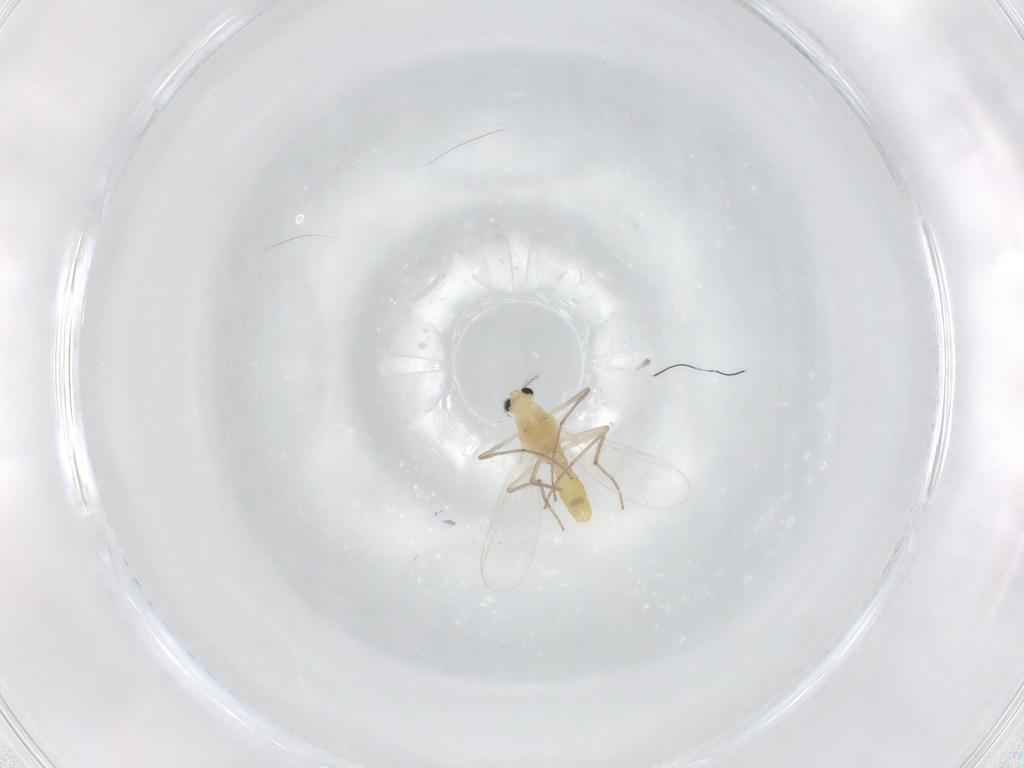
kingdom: Animalia
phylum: Arthropoda
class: Insecta
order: Diptera
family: Chironomidae
